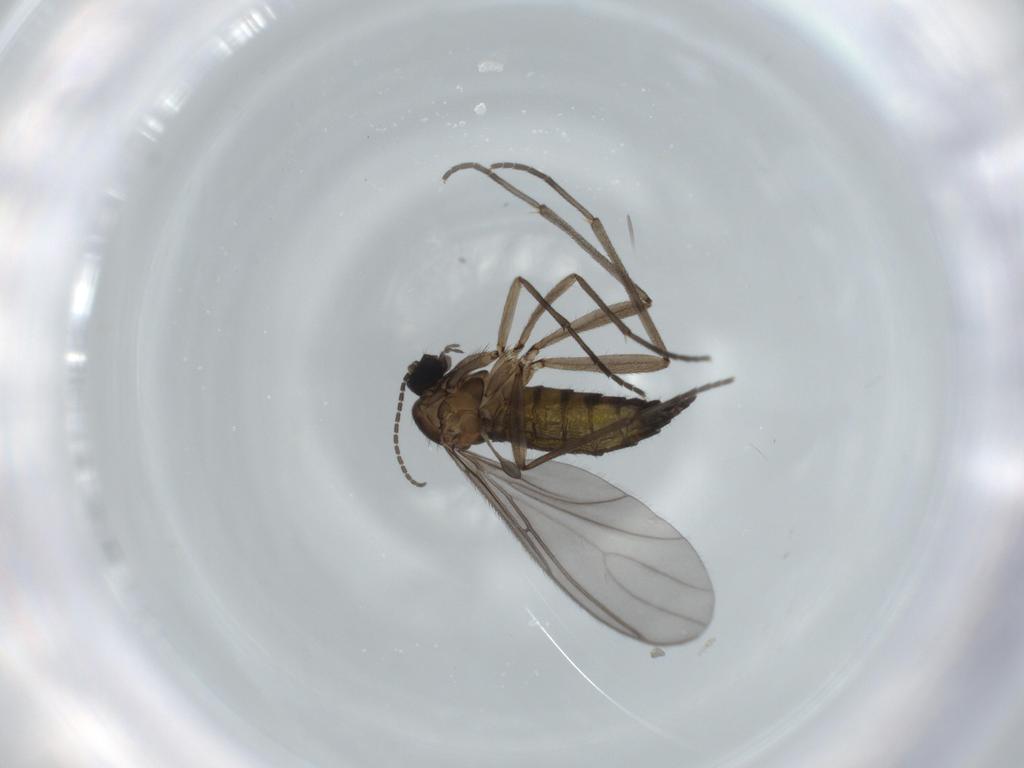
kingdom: Animalia
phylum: Arthropoda
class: Insecta
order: Diptera
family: Sciaridae
